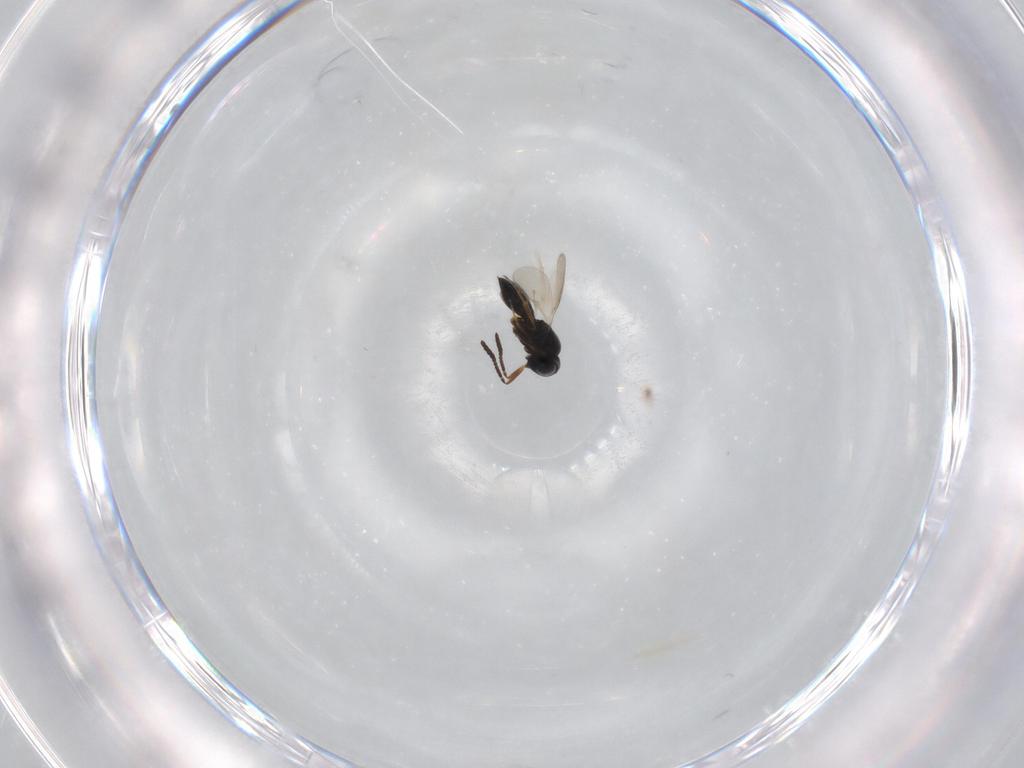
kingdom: Animalia
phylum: Arthropoda
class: Insecta
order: Hymenoptera
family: Scelionidae
